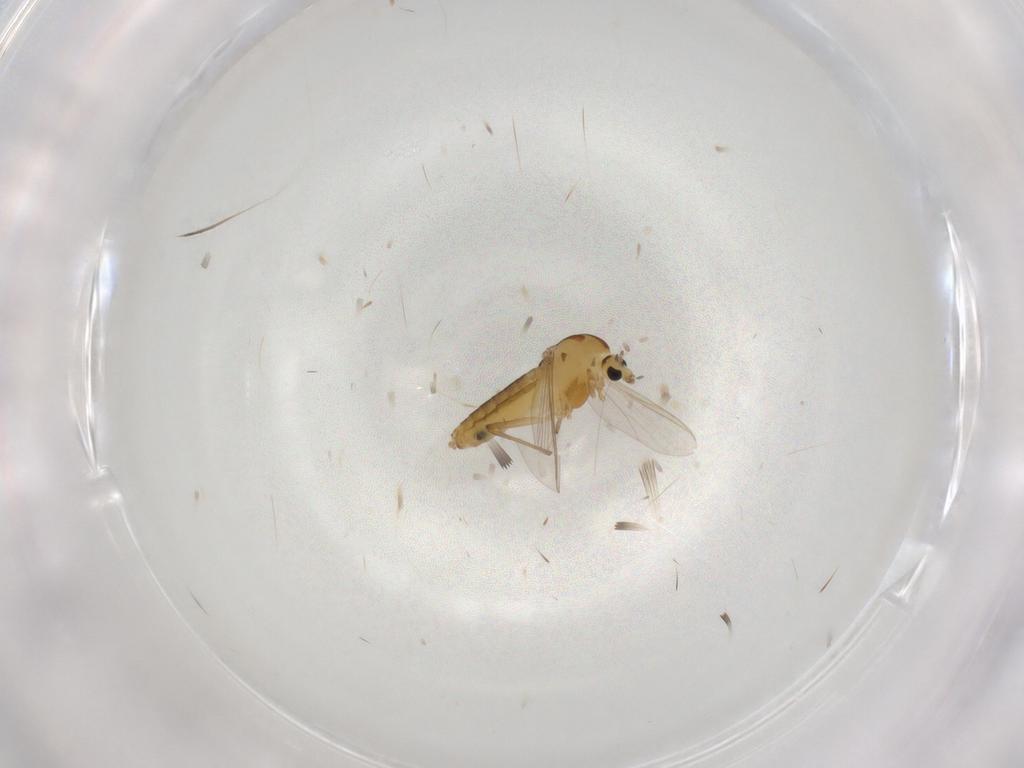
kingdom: Animalia
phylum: Arthropoda
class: Insecta
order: Diptera
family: Chironomidae
